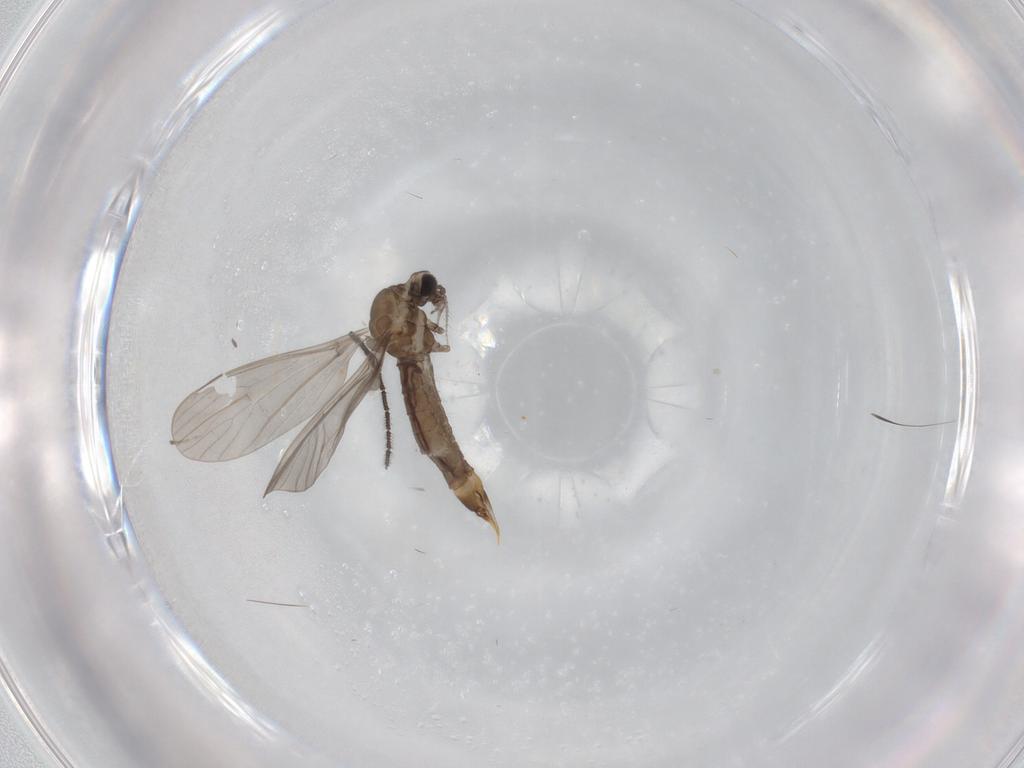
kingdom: Animalia
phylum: Arthropoda
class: Insecta
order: Diptera
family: Limoniidae
